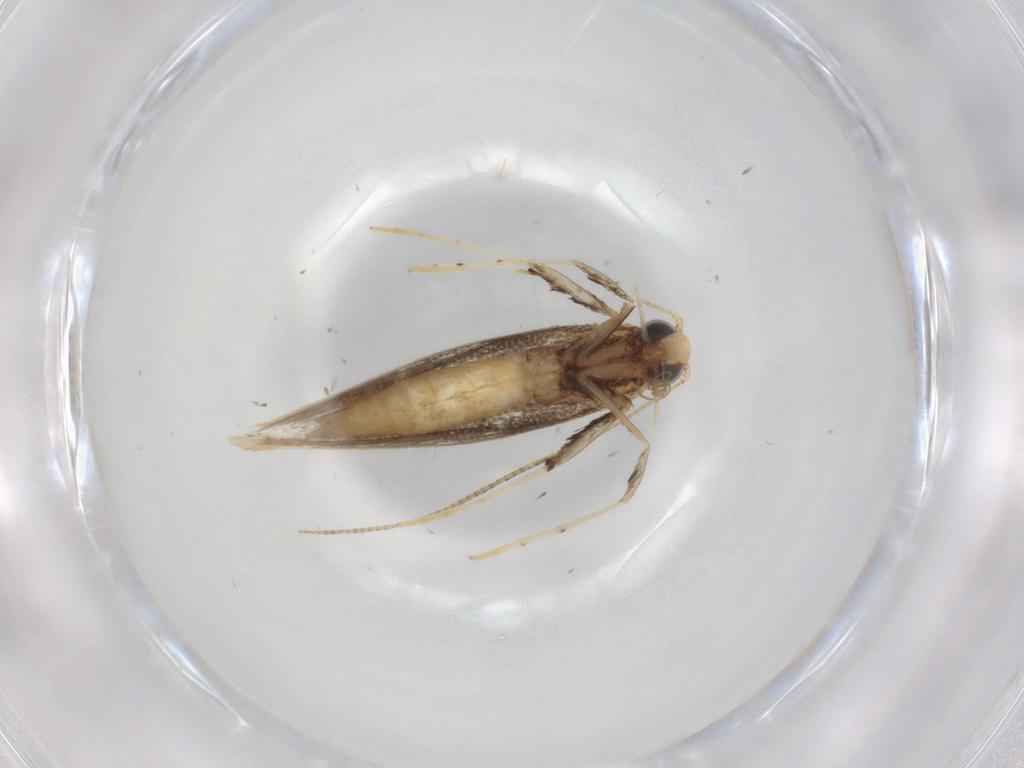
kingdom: Animalia
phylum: Arthropoda
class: Insecta
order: Lepidoptera
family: Gracillariidae
